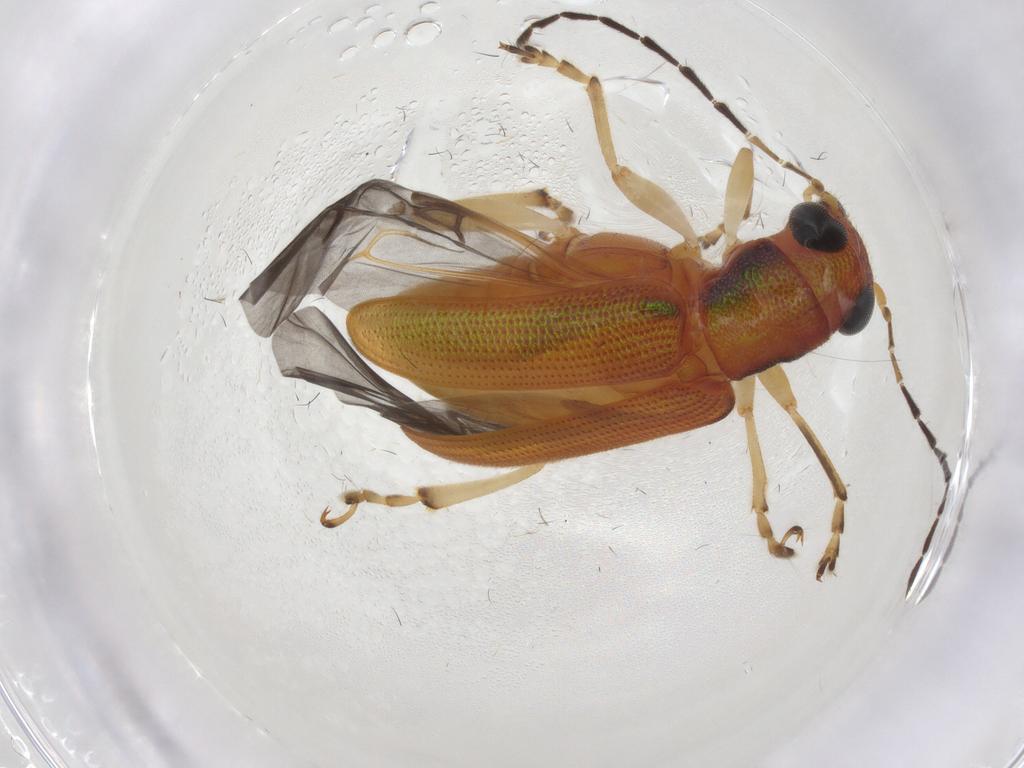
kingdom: Animalia
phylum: Arthropoda
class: Insecta
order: Coleoptera
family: Chrysomelidae
